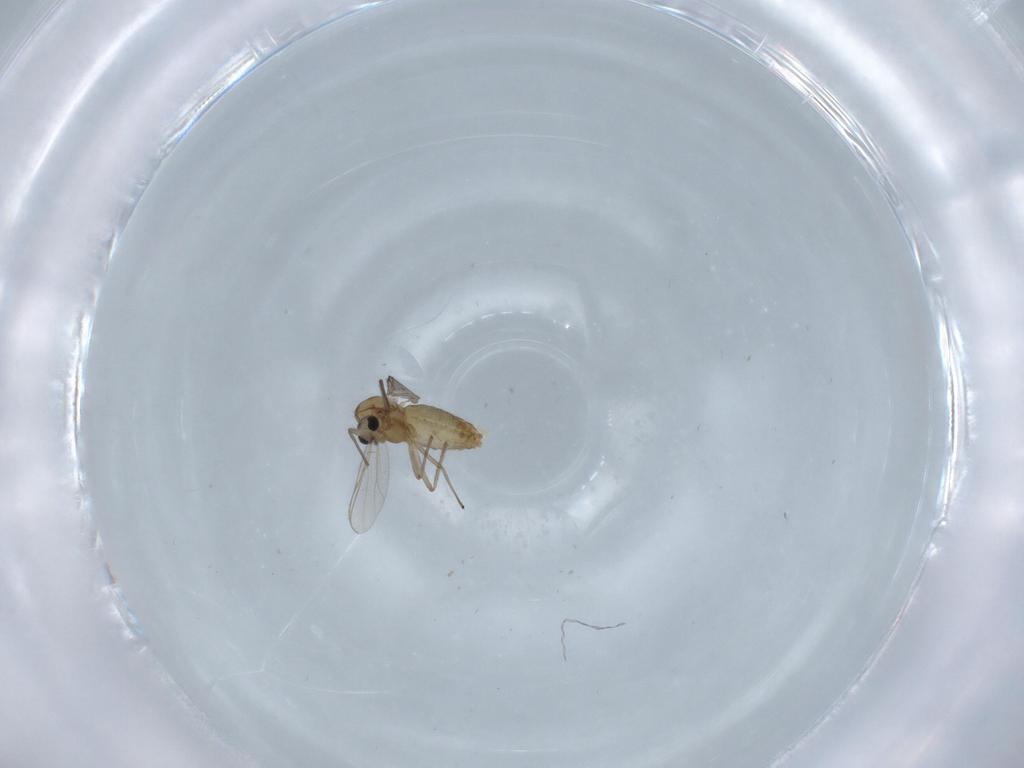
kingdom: Animalia
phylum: Arthropoda
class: Insecta
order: Diptera
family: Chironomidae
